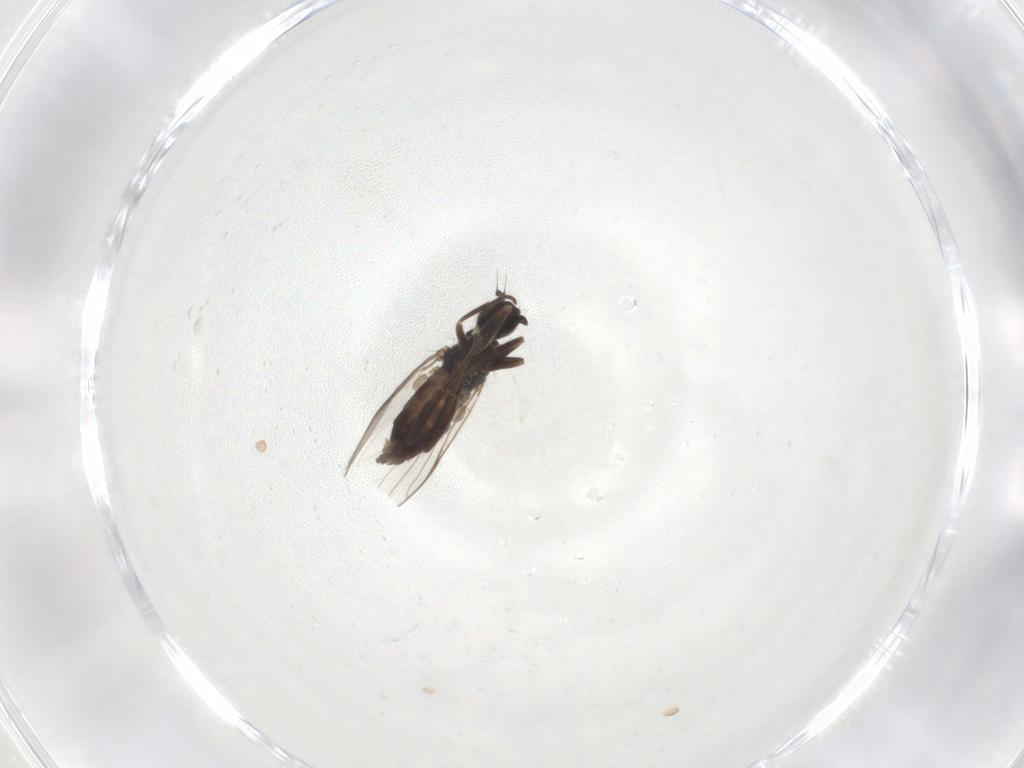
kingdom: Animalia
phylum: Arthropoda
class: Insecta
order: Diptera
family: Hybotidae
